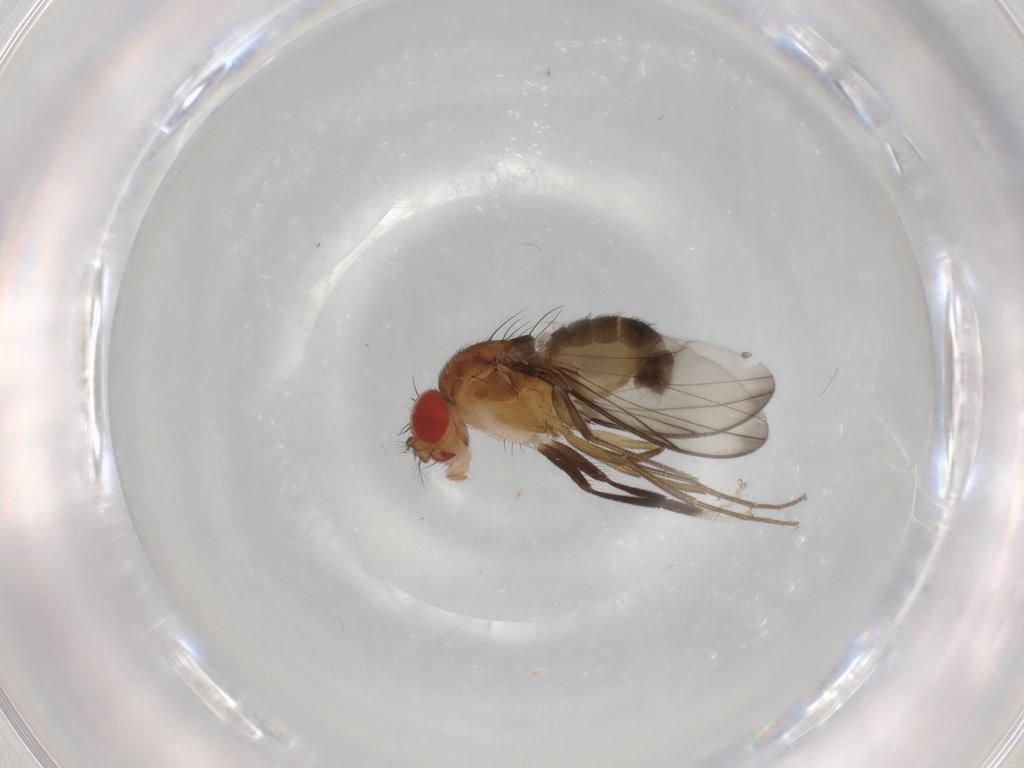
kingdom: Animalia
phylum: Arthropoda
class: Insecta
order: Diptera
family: Drosophilidae
